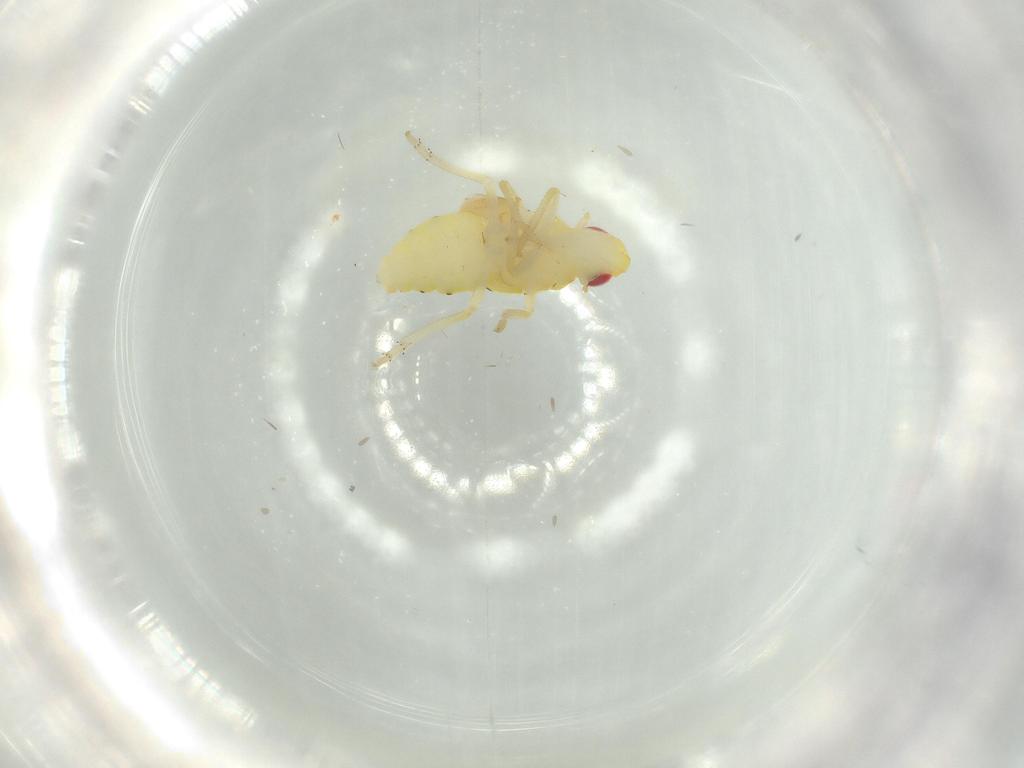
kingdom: Animalia
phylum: Arthropoda
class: Insecta
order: Hemiptera
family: Tropiduchidae
